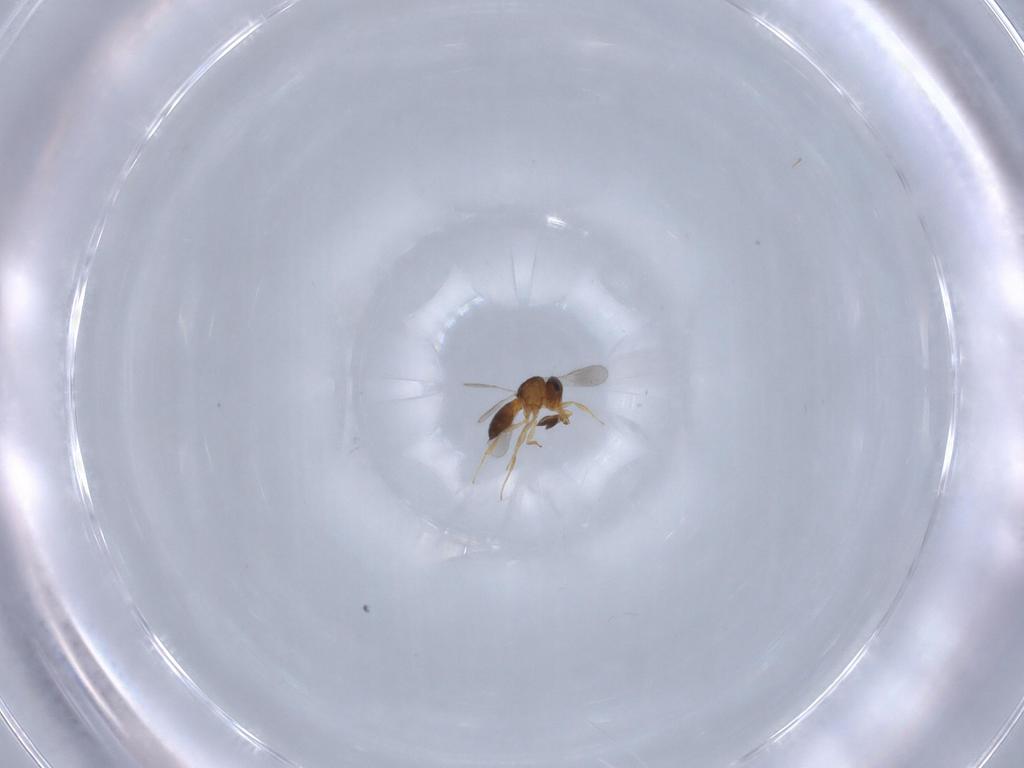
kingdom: Animalia
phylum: Arthropoda
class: Insecta
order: Hymenoptera
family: Scelionidae
